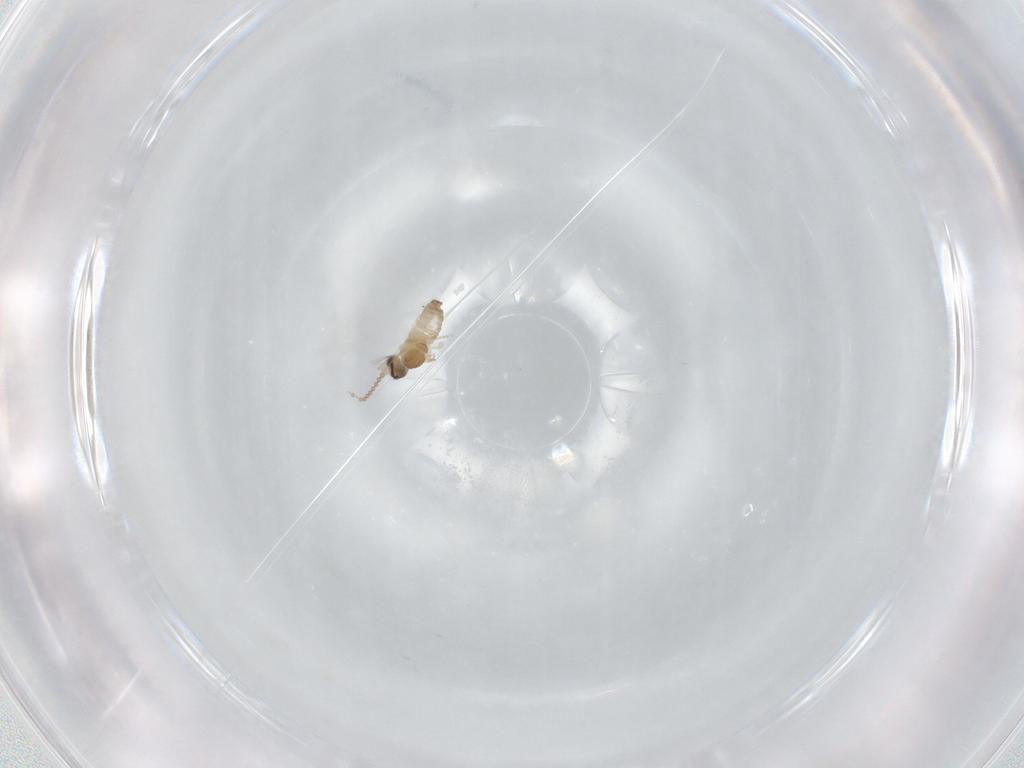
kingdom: Animalia
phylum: Arthropoda
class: Insecta
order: Diptera
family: Cecidomyiidae
